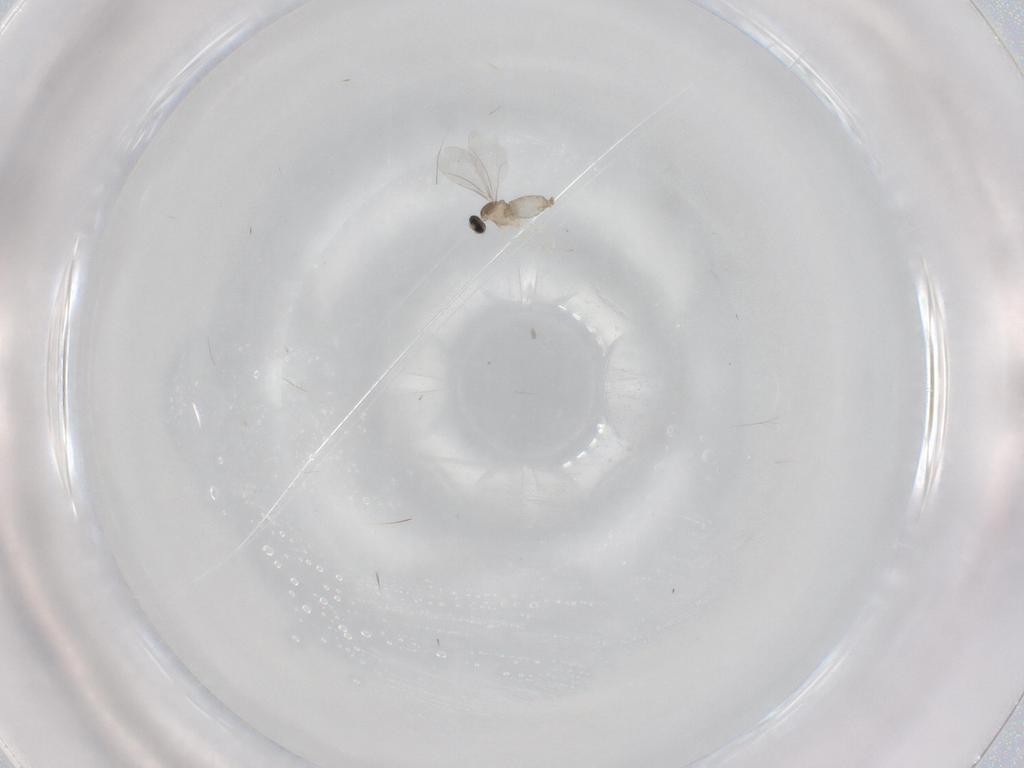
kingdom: Animalia
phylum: Arthropoda
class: Insecta
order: Diptera
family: Cecidomyiidae
